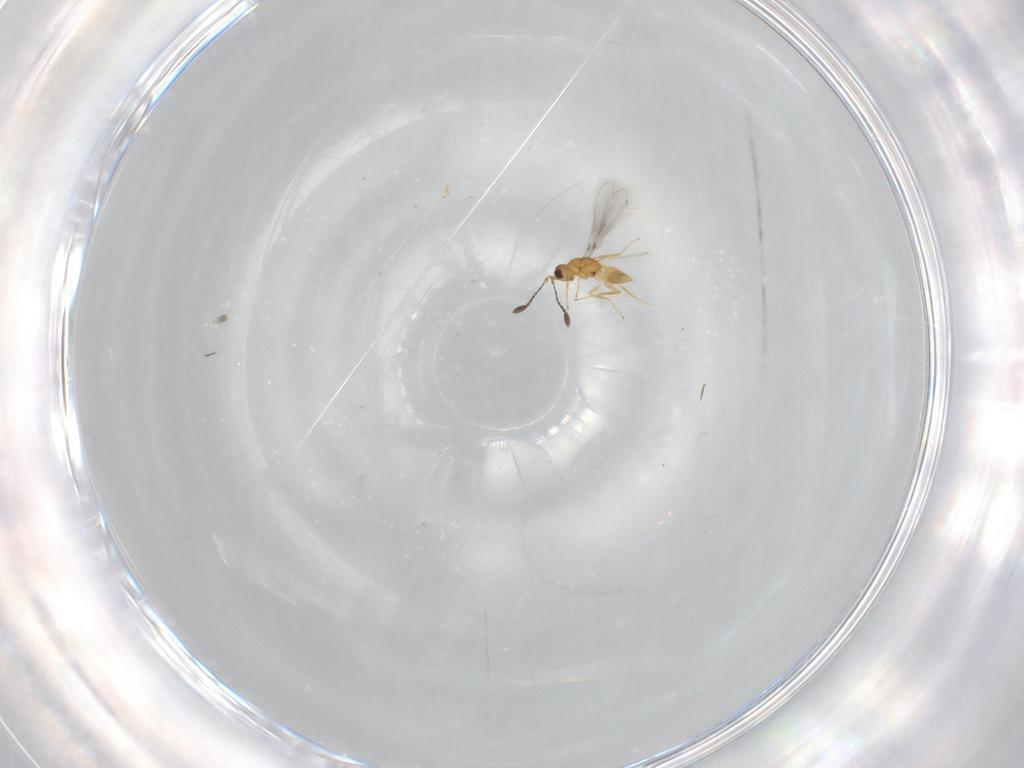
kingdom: Animalia
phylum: Arthropoda
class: Insecta
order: Hymenoptera
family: Mymaridae
